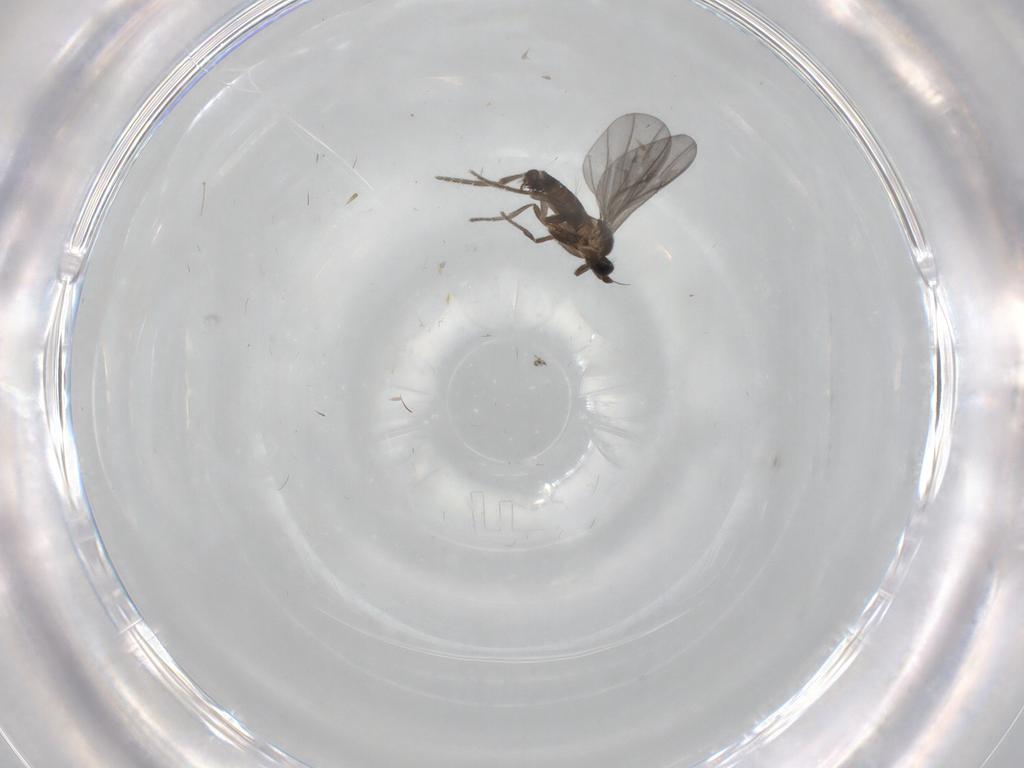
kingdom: Animalia
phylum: Arthropoda
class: Insecta
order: Diptera
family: Phoridae
